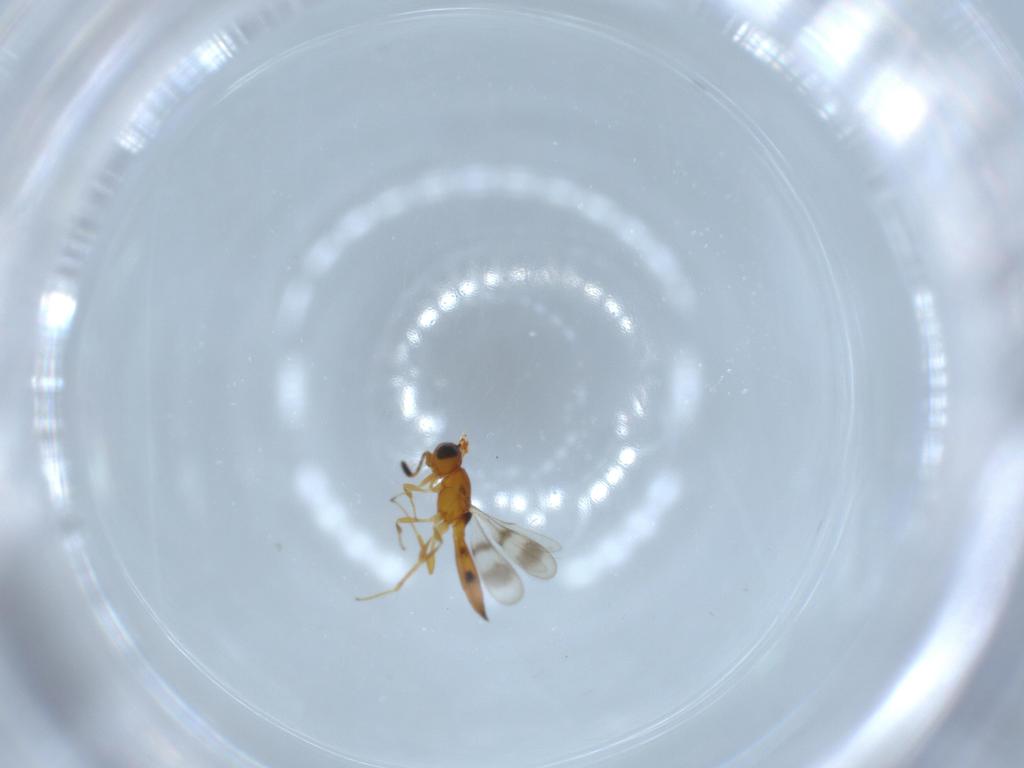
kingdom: Animalia
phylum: Arthropoda
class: Insecta
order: Hymenoptera
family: Scelionidae
